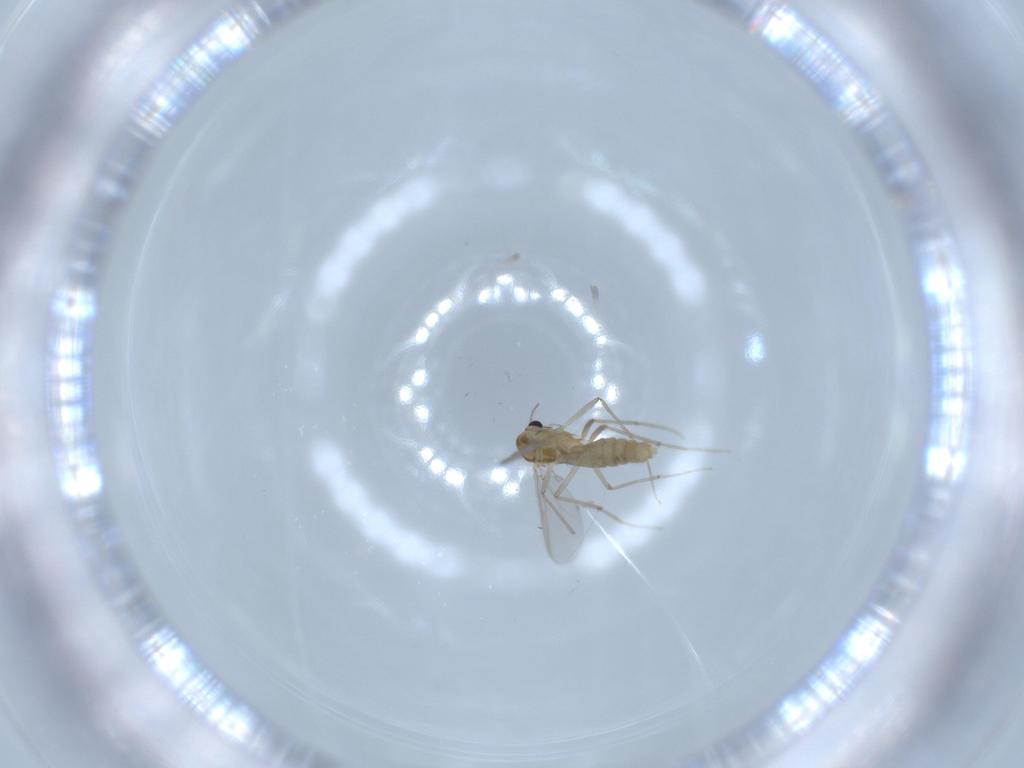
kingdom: Animalia
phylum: Arthropoda
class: Insecta
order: Diptera
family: Chironomidae
